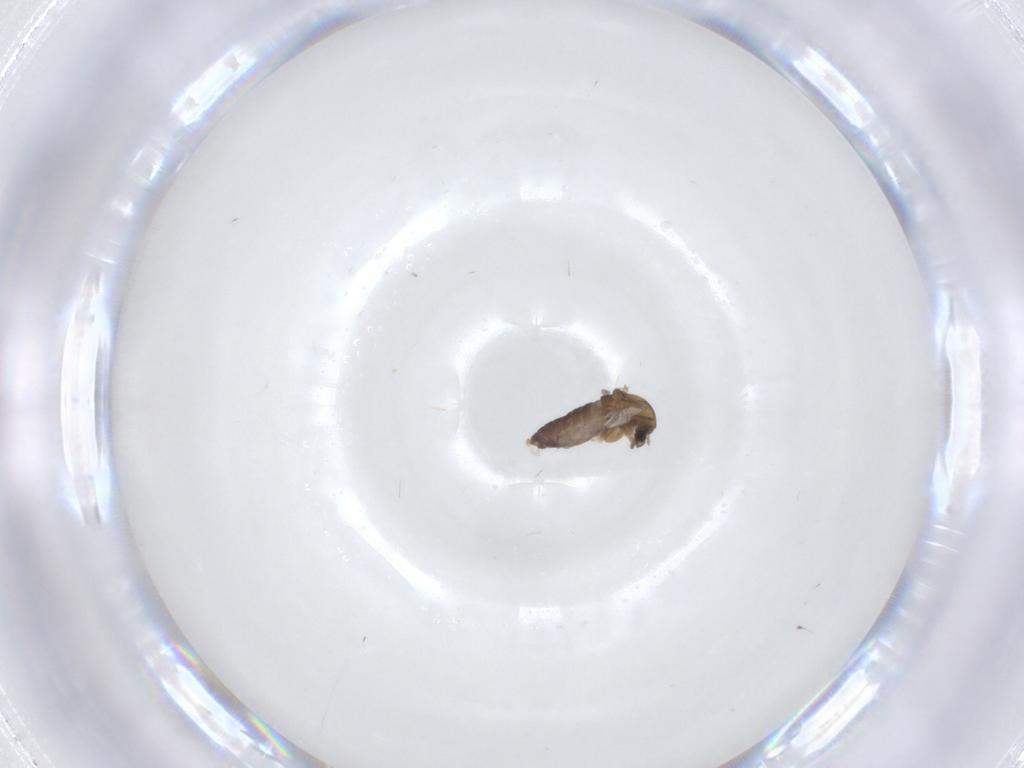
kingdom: Animalia
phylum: Arthropoda
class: Insecta
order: Diptera
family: Chironomidae
